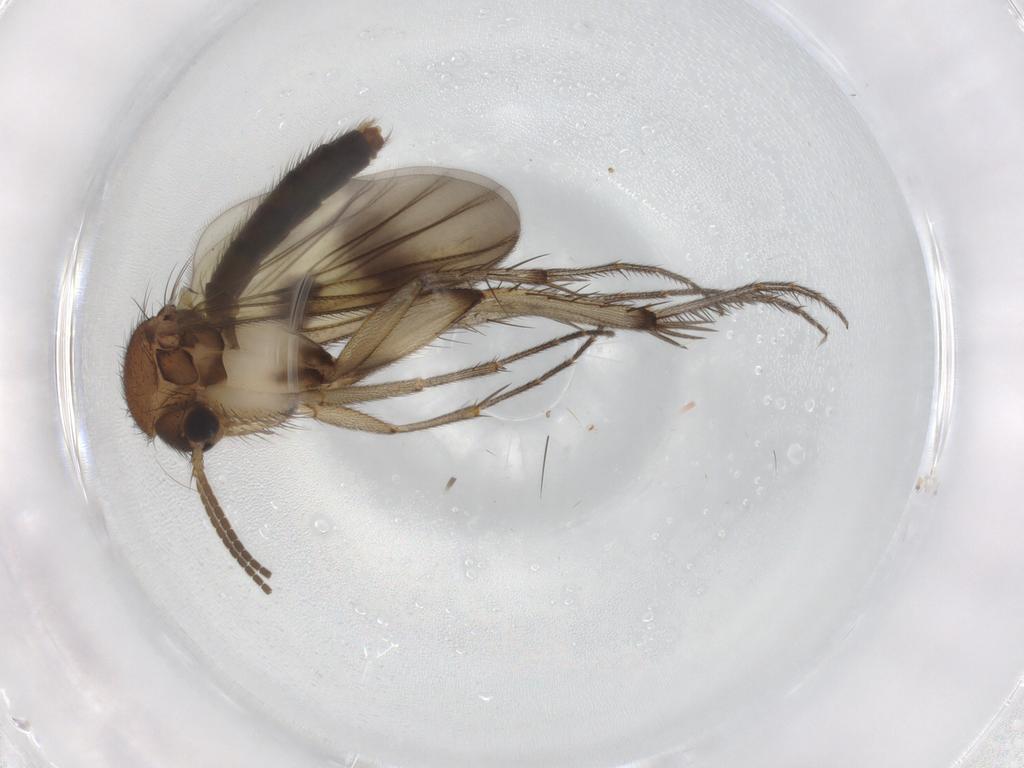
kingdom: Animalia
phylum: Arthropoda
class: Insecta
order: Diptera
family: Mycetophilidae
